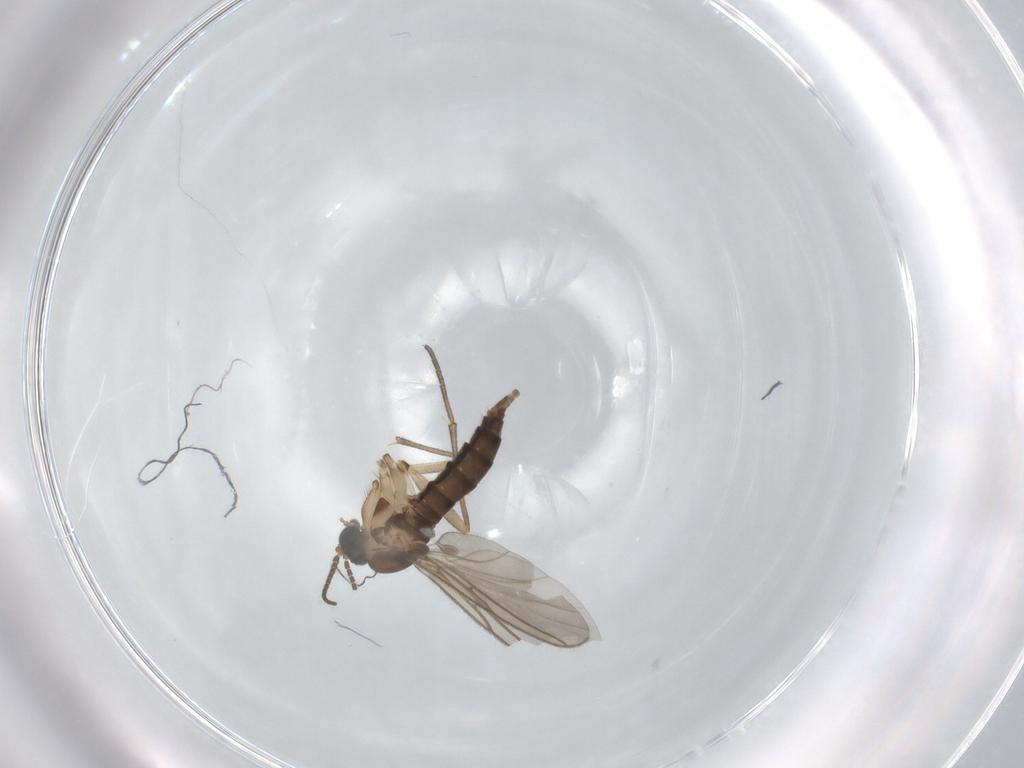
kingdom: Animalia
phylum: Arthropoda
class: Insecta
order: Diptera
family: Sciaridae
